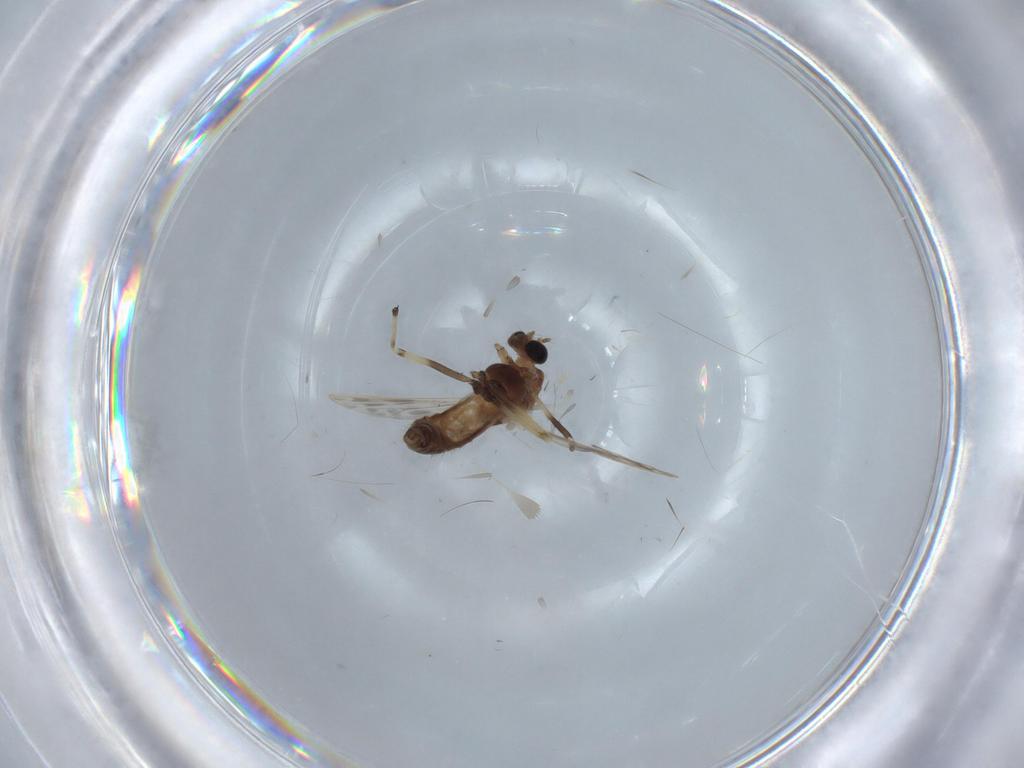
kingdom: Animalia
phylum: Arthropoda
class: Insecta
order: Diptera
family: Chironomidae
